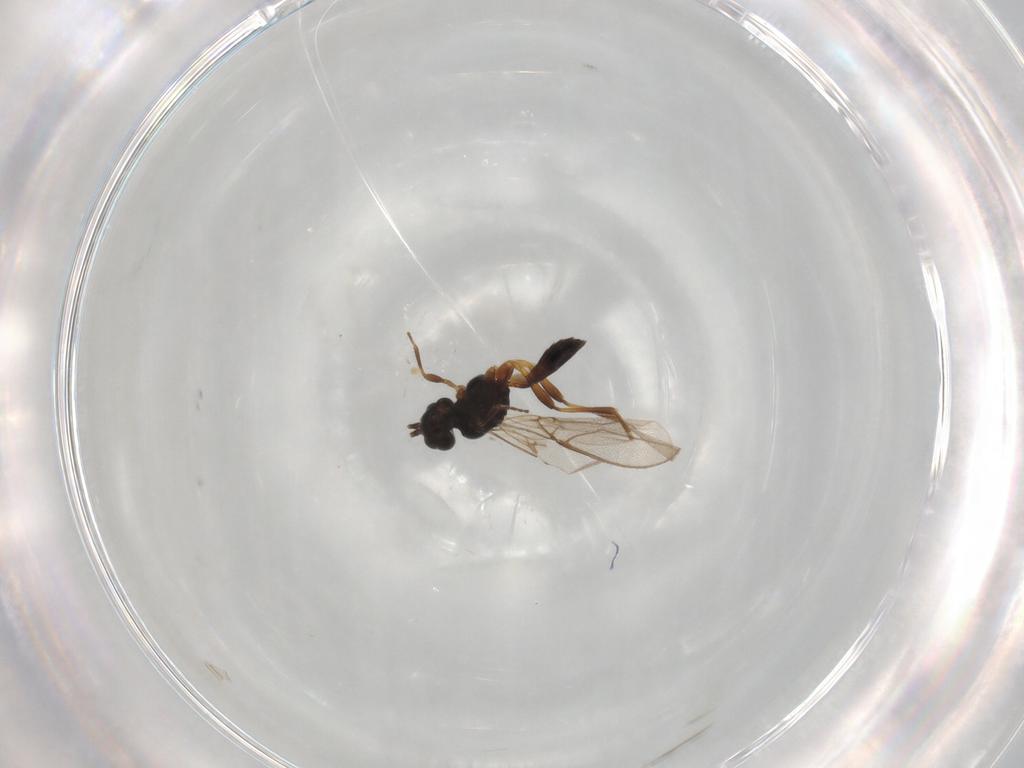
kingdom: Animalia
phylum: Arthropoda
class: Insecta
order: Hymenoptera
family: Braconidae
